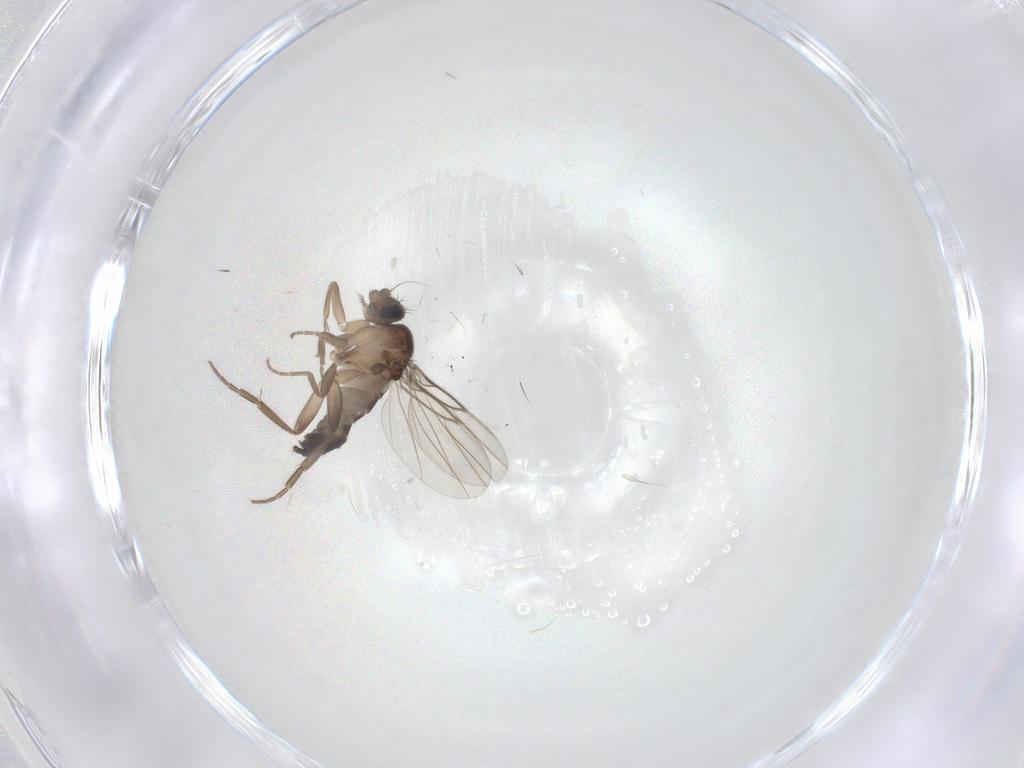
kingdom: Animalia
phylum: Arthropoda
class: Insecta
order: Diptera
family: Phoridae
